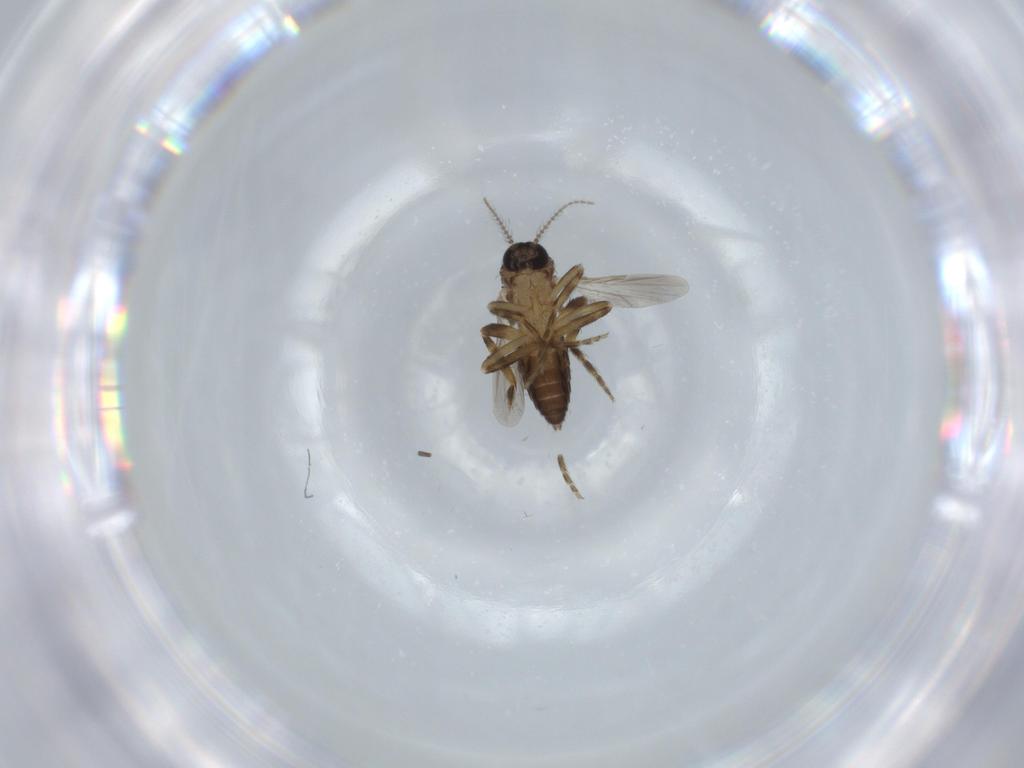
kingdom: Animalia
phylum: Arthropoda
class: Insecta
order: Diptera
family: Ceratopogonidae
